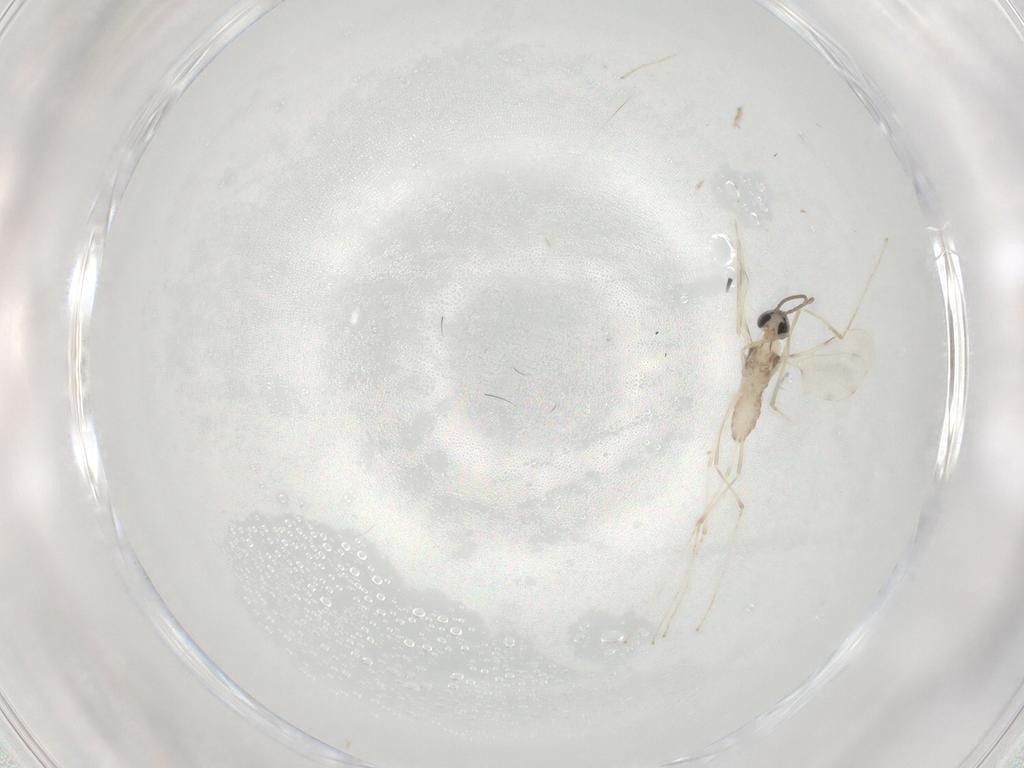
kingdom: Animalia
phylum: Arthropoda
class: Insecta
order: Diptera
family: Cecidomyiidae
